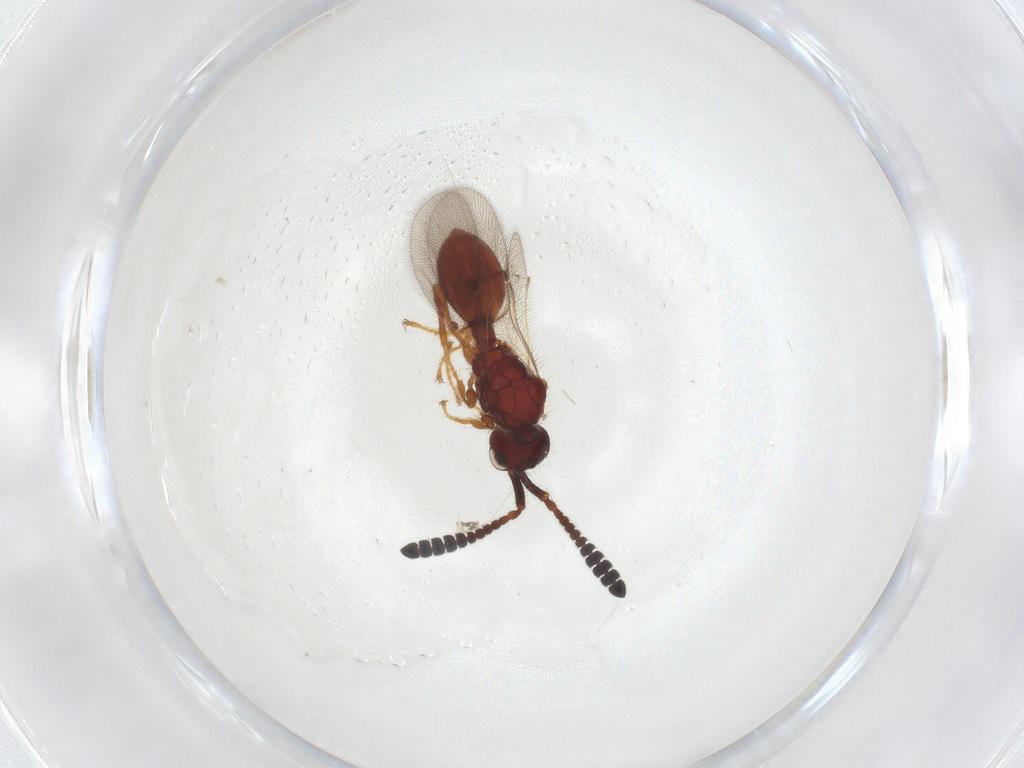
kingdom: Animalia
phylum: Arthropoda
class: Insecta
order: Hymenoptera
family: Diapriidae
